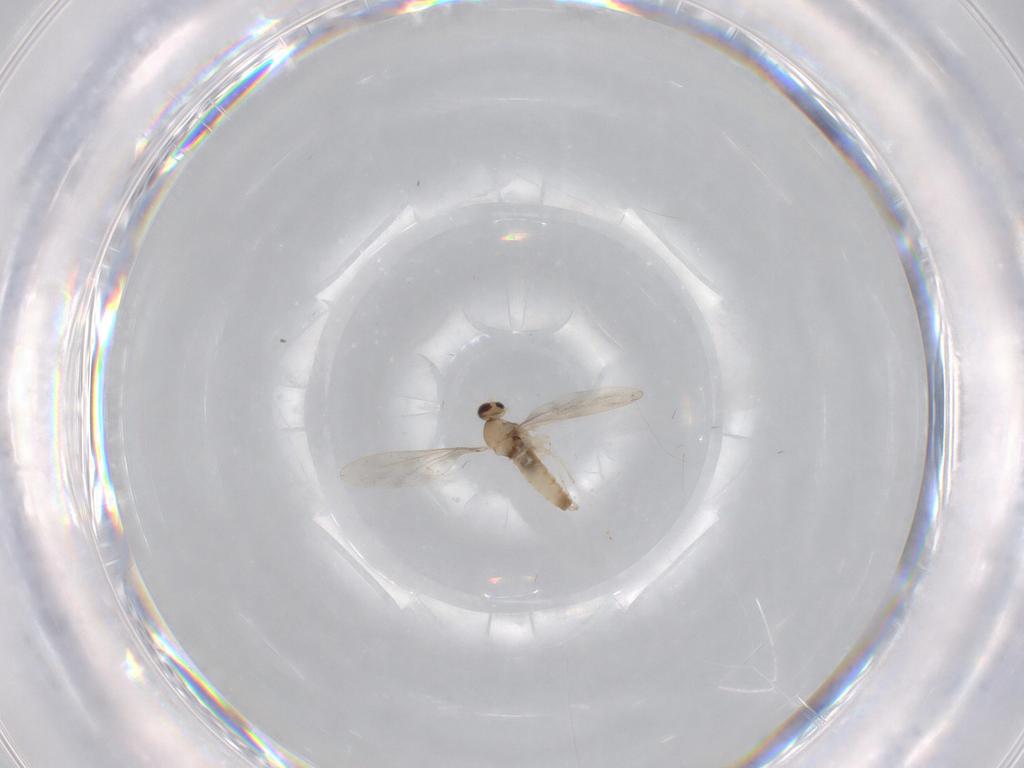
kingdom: Animalia
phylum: Arthropoda
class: Insecta
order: Diptera
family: Cecidomyiidae
